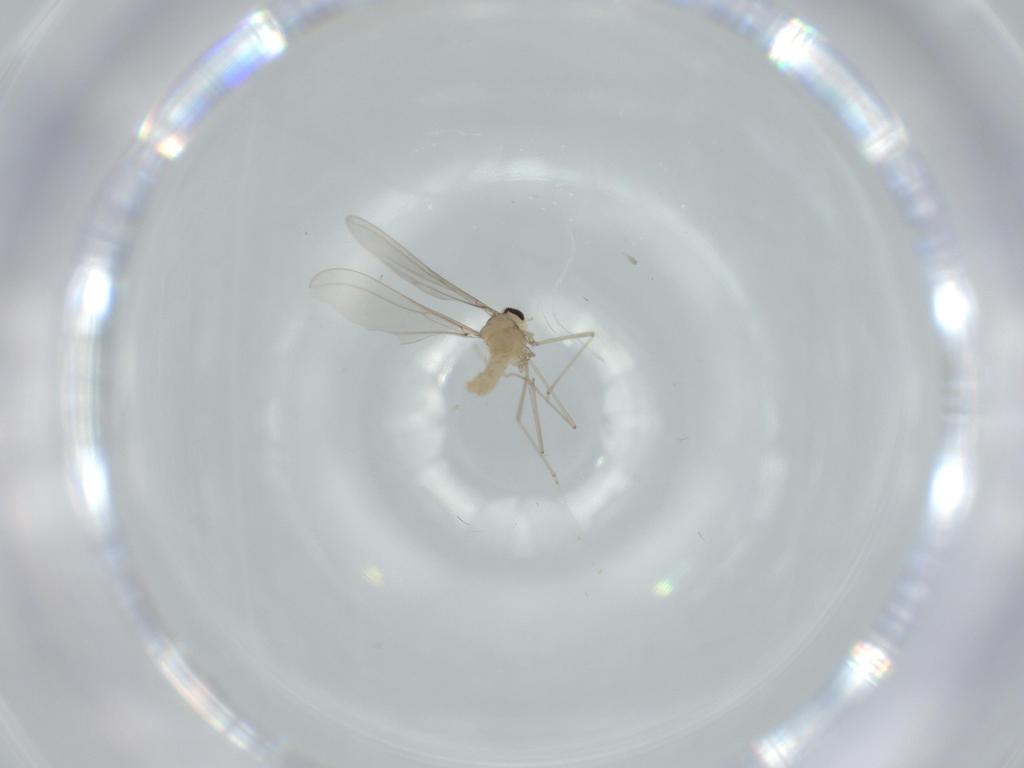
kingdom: Animalia
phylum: Arthropoda
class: Insecta
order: Diptera
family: Cecidomyiidae
